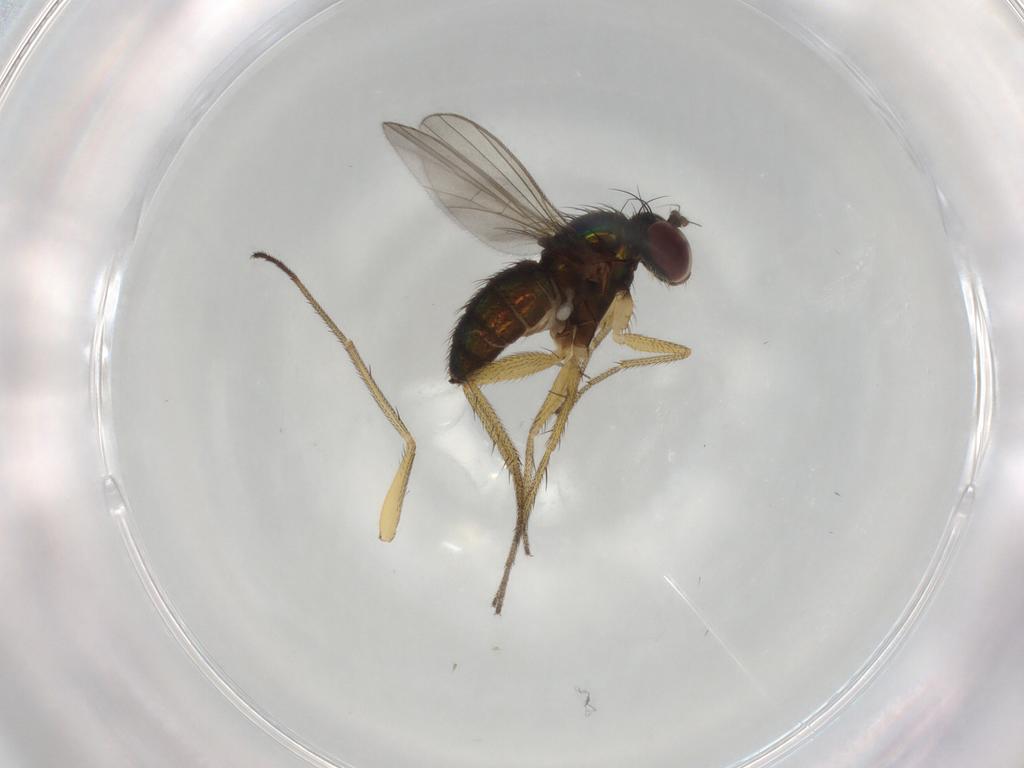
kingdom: Animalia
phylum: Arthropoda
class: Insecta
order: Diptera
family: Dolichopodidae
